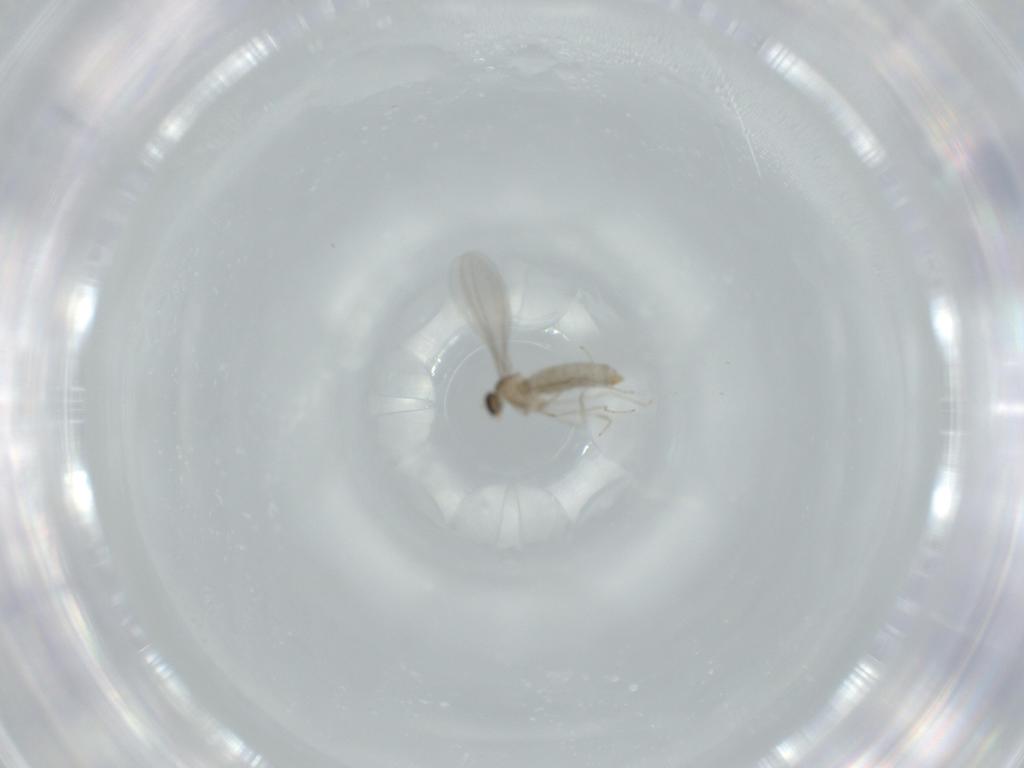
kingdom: Animalia
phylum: Arthropoda
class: Insecta
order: Diptera
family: Cecidomyiidae
